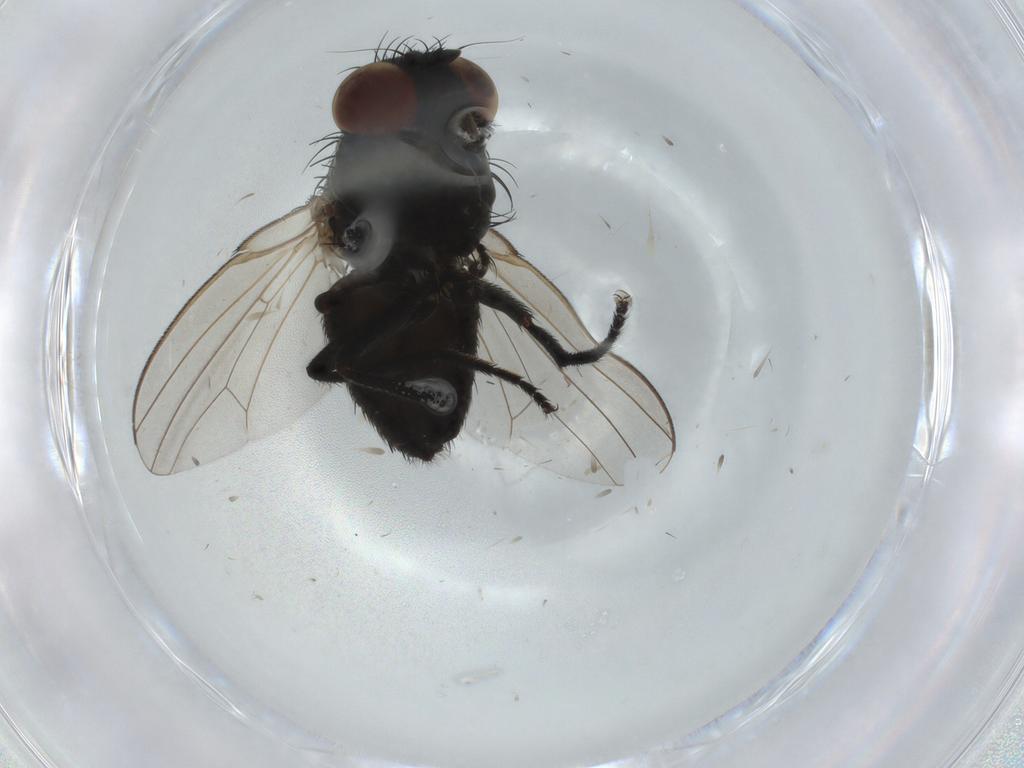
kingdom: Animalia
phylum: Arthropoda
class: Insecta
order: Diptera
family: Milichiidae
